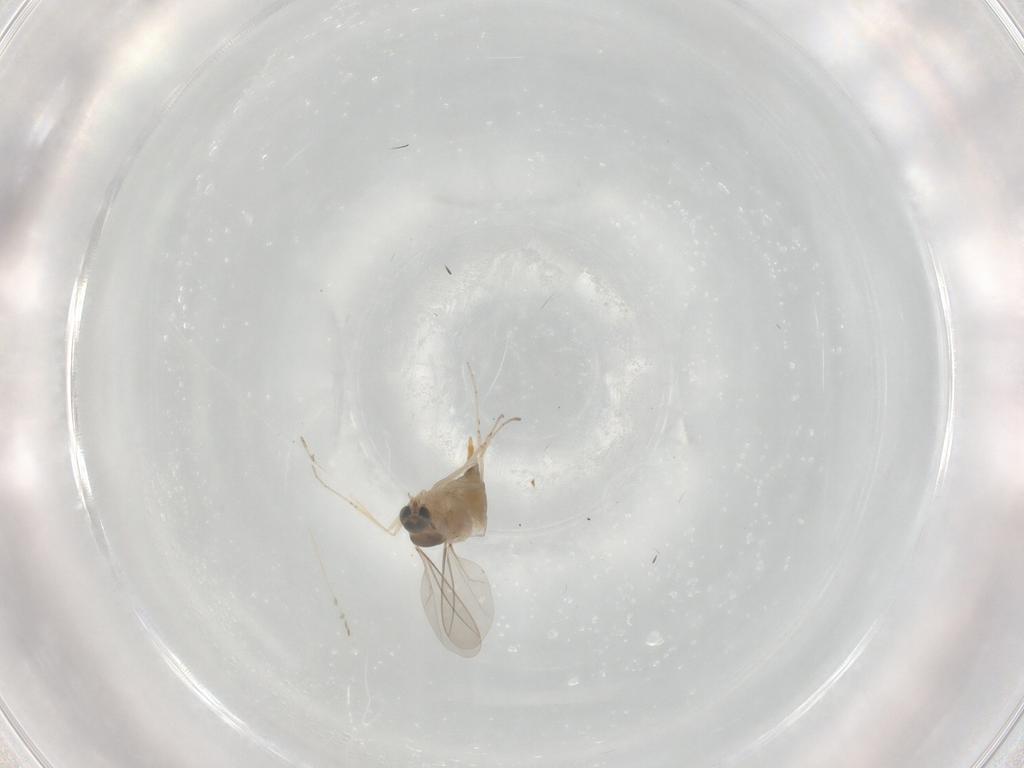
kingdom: Animalia
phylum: Arthropoda
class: Insecta
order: Diptera
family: Cecidomyiidae
